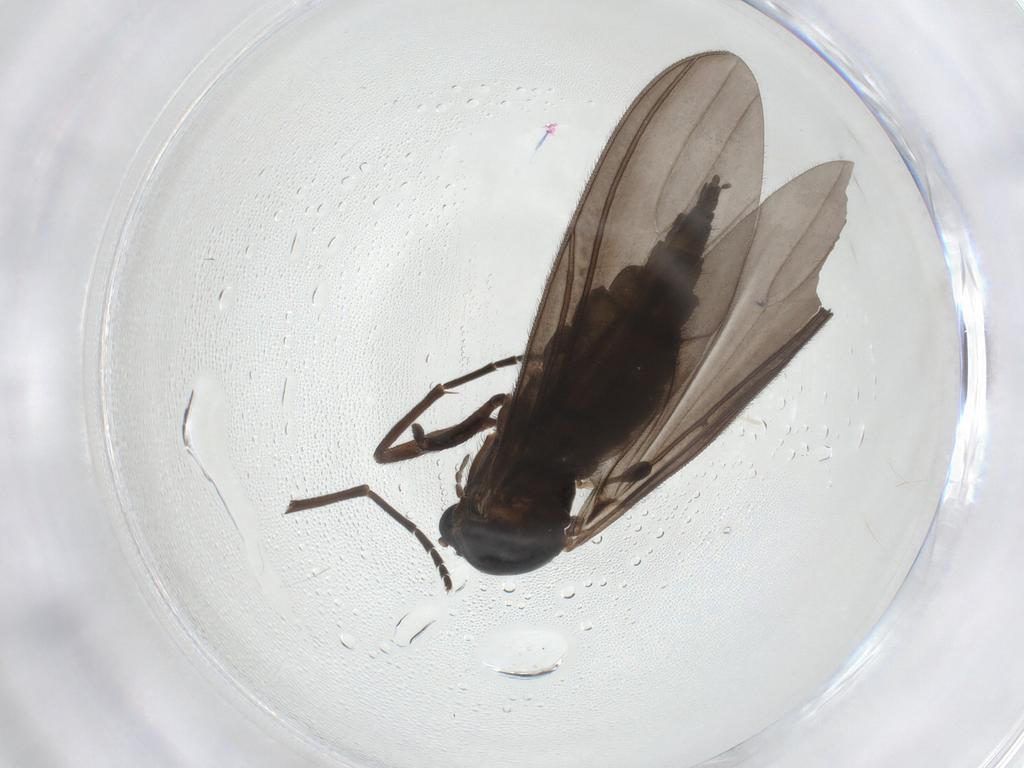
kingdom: Animalia
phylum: Arthropoda
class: Insecta
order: Diptera
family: Sciaridae
